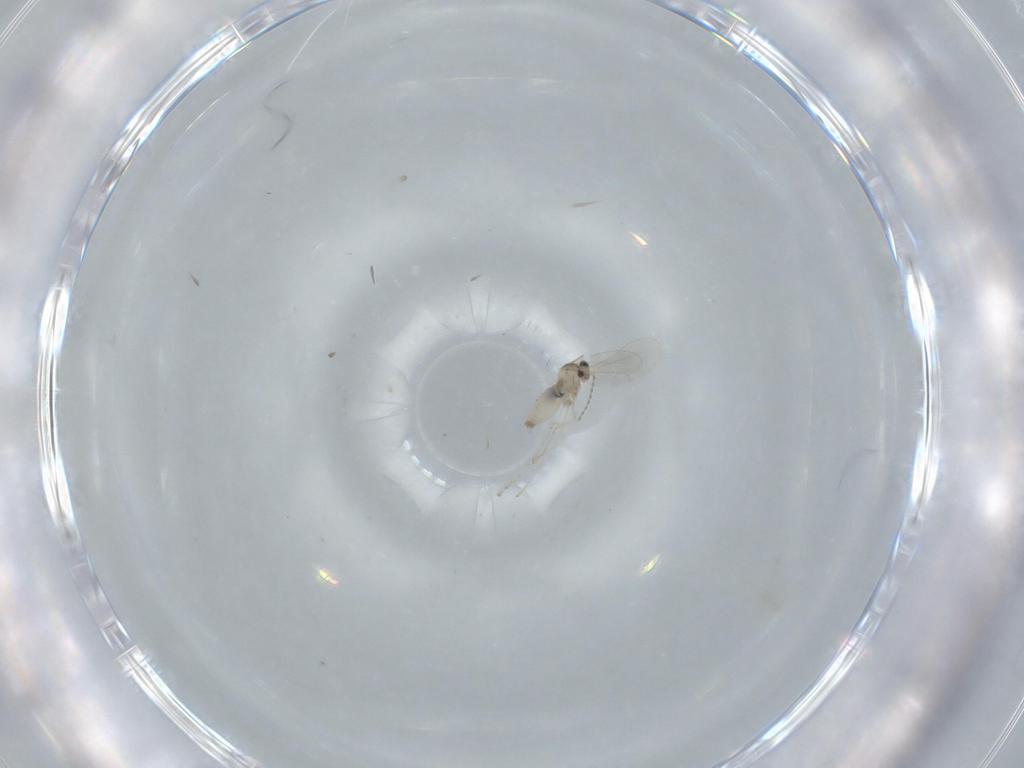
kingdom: Animalia
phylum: Arthropoda
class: Insecta
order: Diptera
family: Cecidomyiidae
